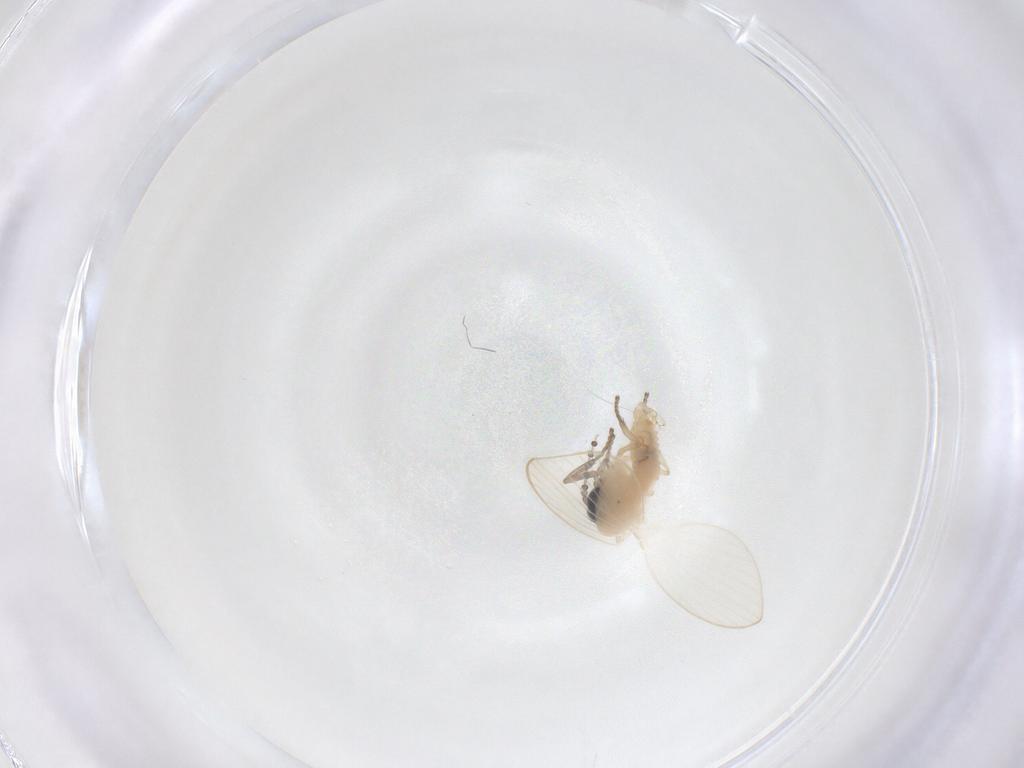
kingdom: Animalia
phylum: Arthropoda
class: Insecta
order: Diptera
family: Psychodidae
